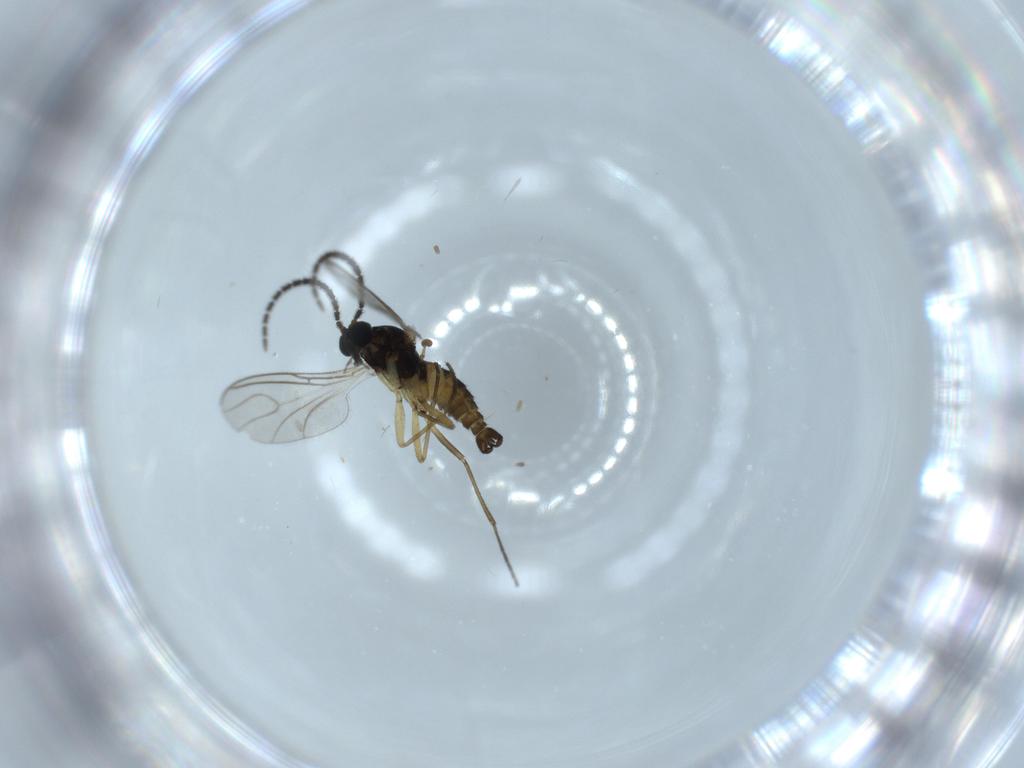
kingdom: Animalia
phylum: Arthropoda
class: Insecta
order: Diptera
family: Sciaridae
